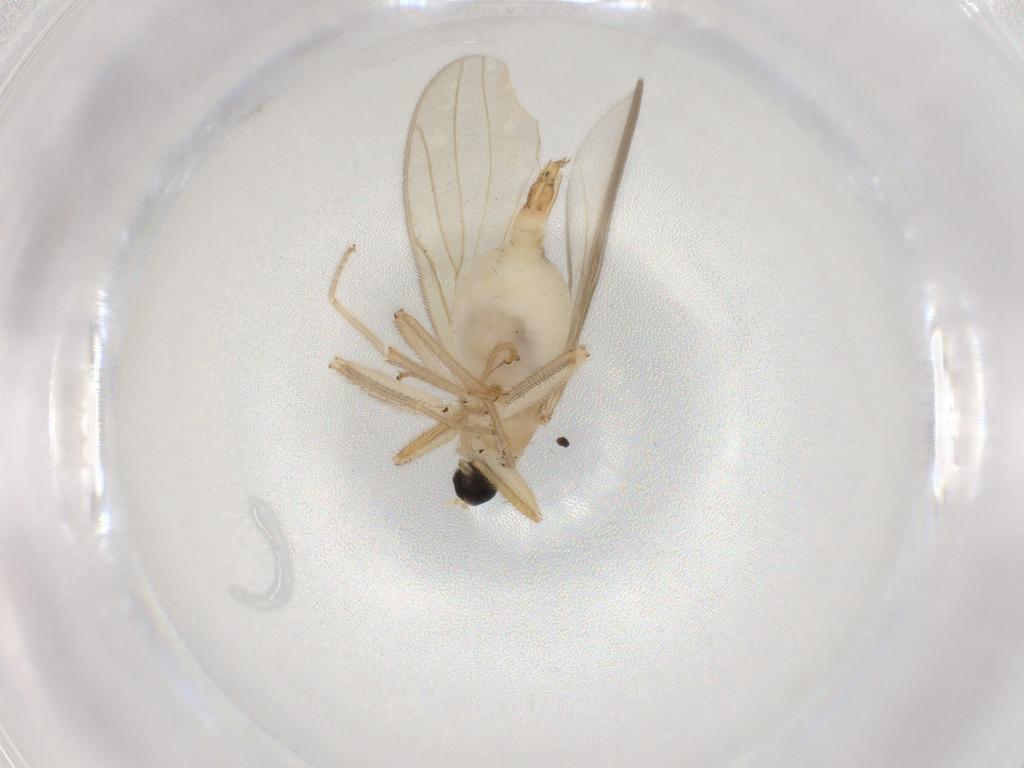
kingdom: Animalia
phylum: Arthropoda
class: Insecta
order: Diptera
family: Hybotidae
